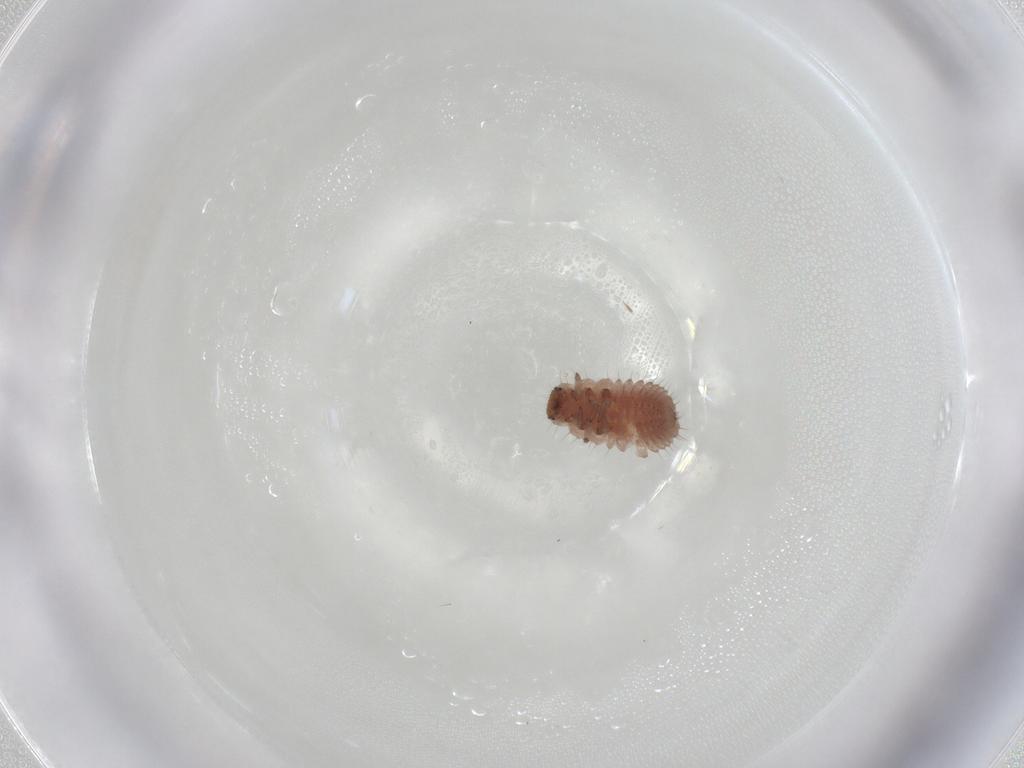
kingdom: Animalia
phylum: Arthropoda
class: Insecta
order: Coleoptera
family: Coccinellidae
